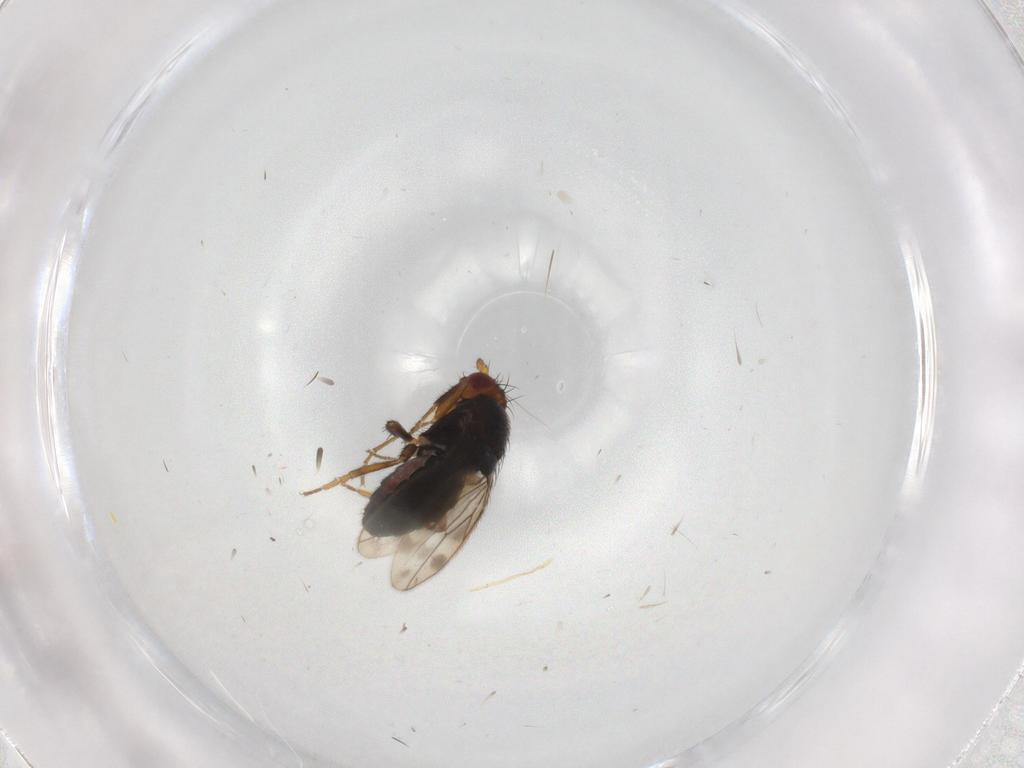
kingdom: Animalia
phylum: Arthropoda
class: Insecta
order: Diptera
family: Sphaeroceridae
